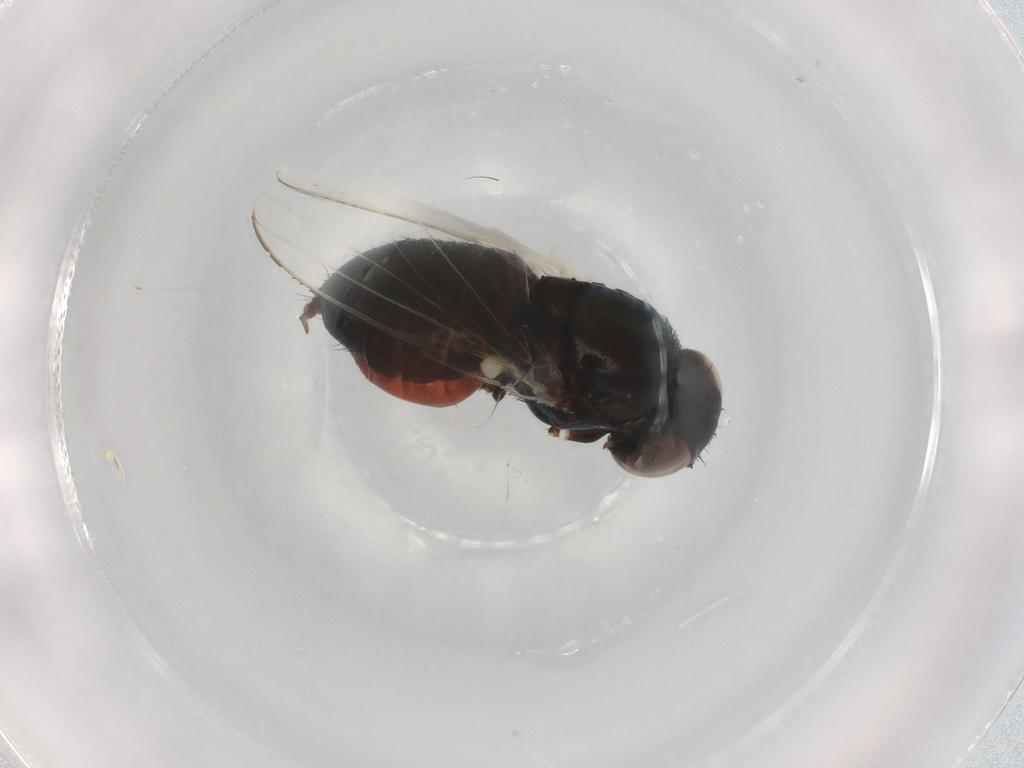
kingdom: Animalia
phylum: Arthropoda
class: Insecta
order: Diptera
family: Milichiidae
